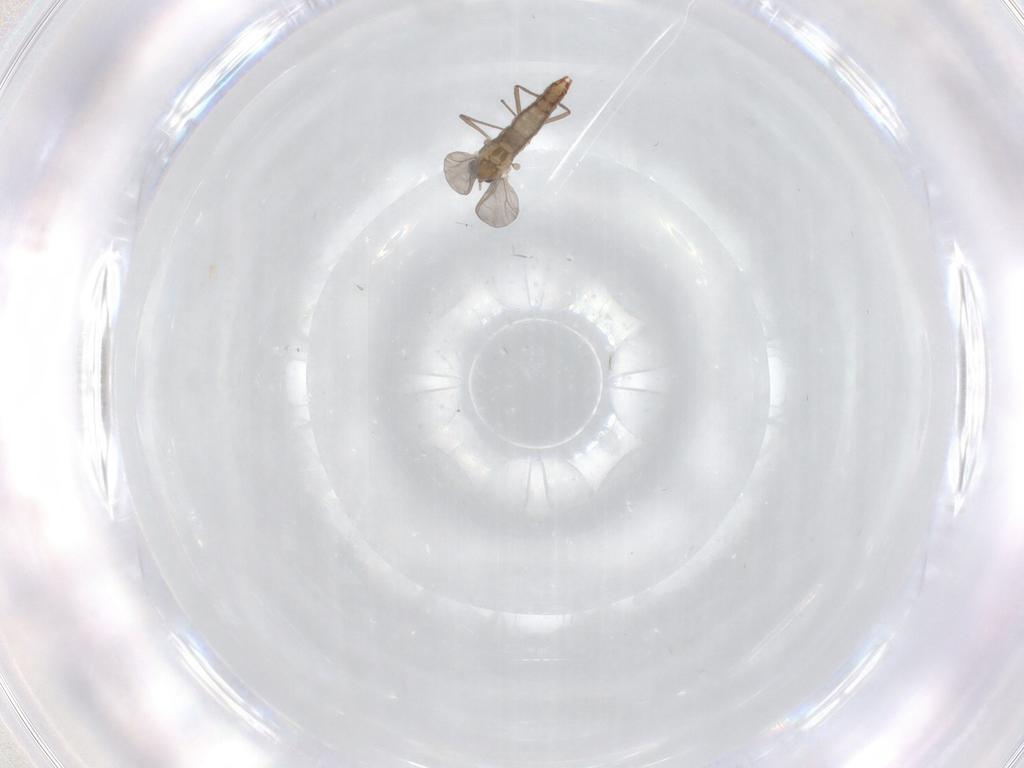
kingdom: Animalia
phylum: Arthropoda
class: Insecta
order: Diptera
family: Chironomidae
